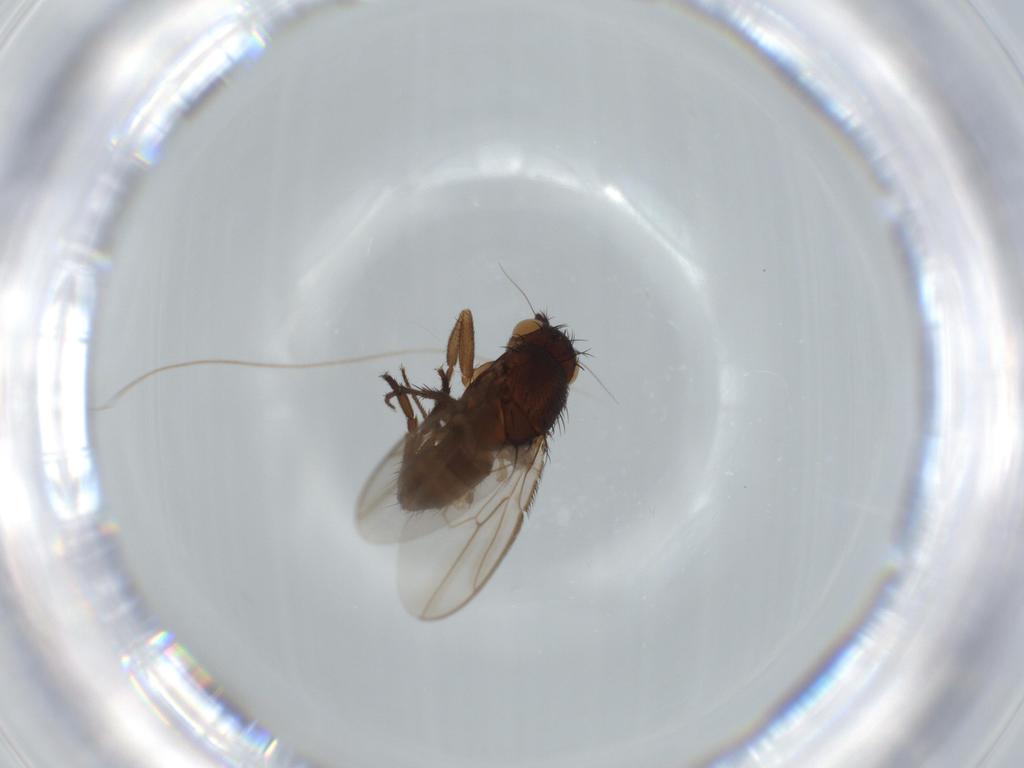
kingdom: Animalia
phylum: Arthropoda
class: Insecta
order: Diptera
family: Sphaeroceridae
